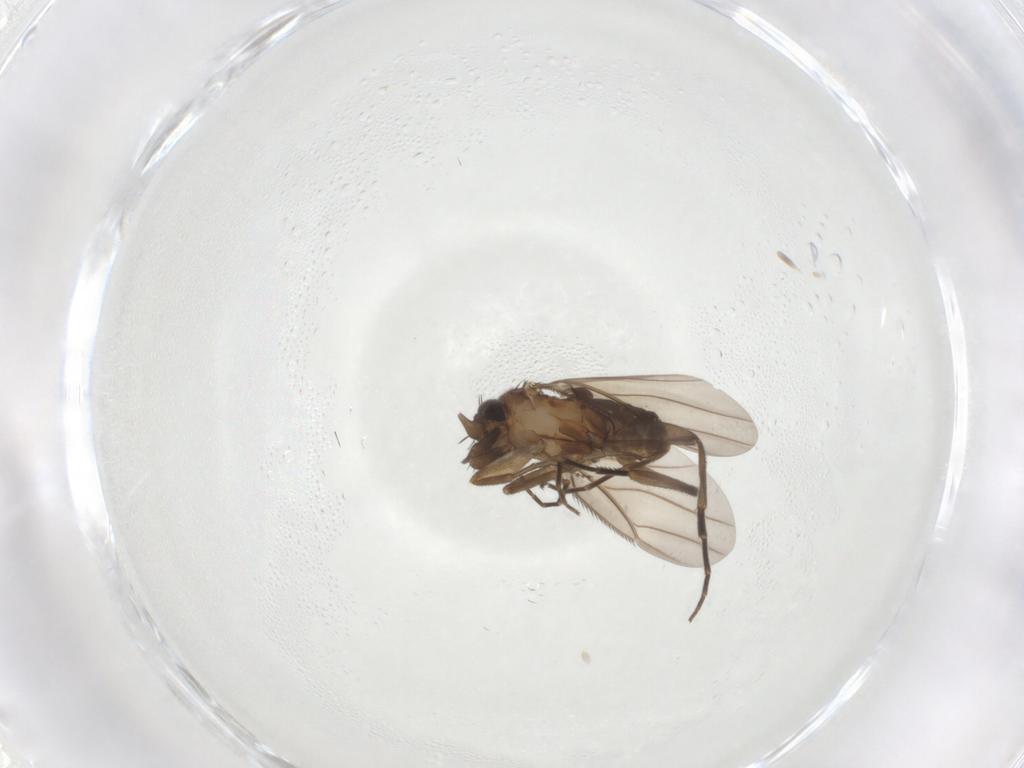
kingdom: Animalia
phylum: Arthropoda
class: Insecta
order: Diptera
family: Phoridae
